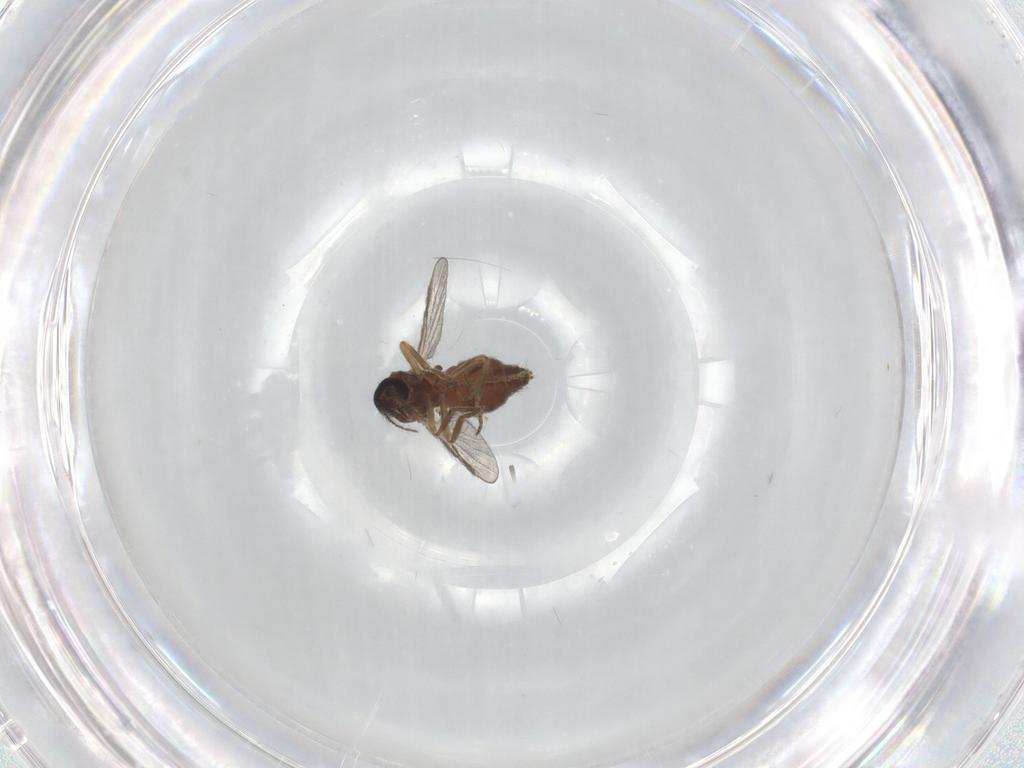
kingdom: Animalia
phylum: Arthropoda
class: Insecta
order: Diptera
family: Ceratopogonidae
